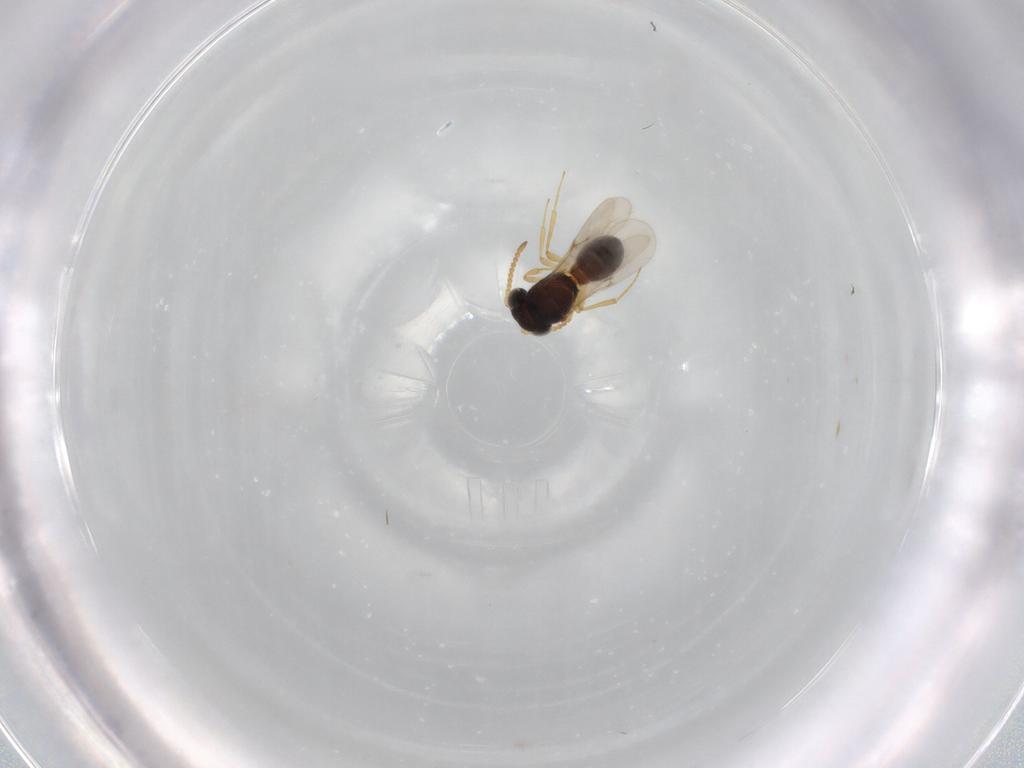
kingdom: Animalia
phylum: Arthropoda
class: Insecta
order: Hymenoptera
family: Scelionidae
